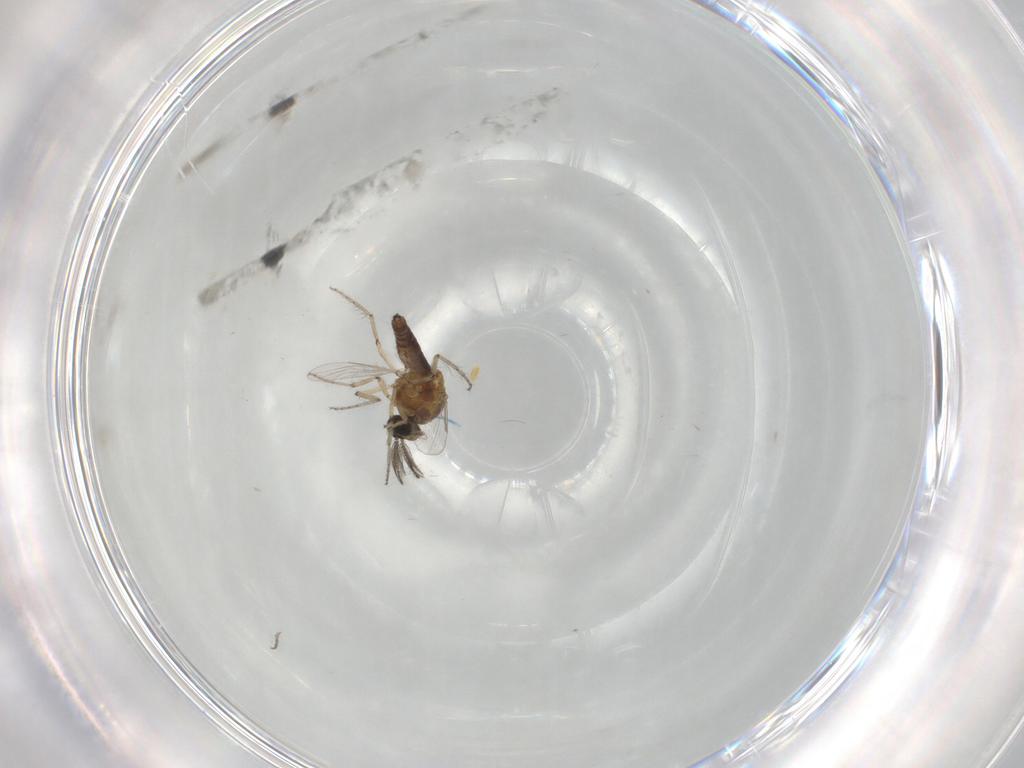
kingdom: Animalia
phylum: Arthropoda
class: Insecta
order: Diptera
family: Ceratopogonidae
